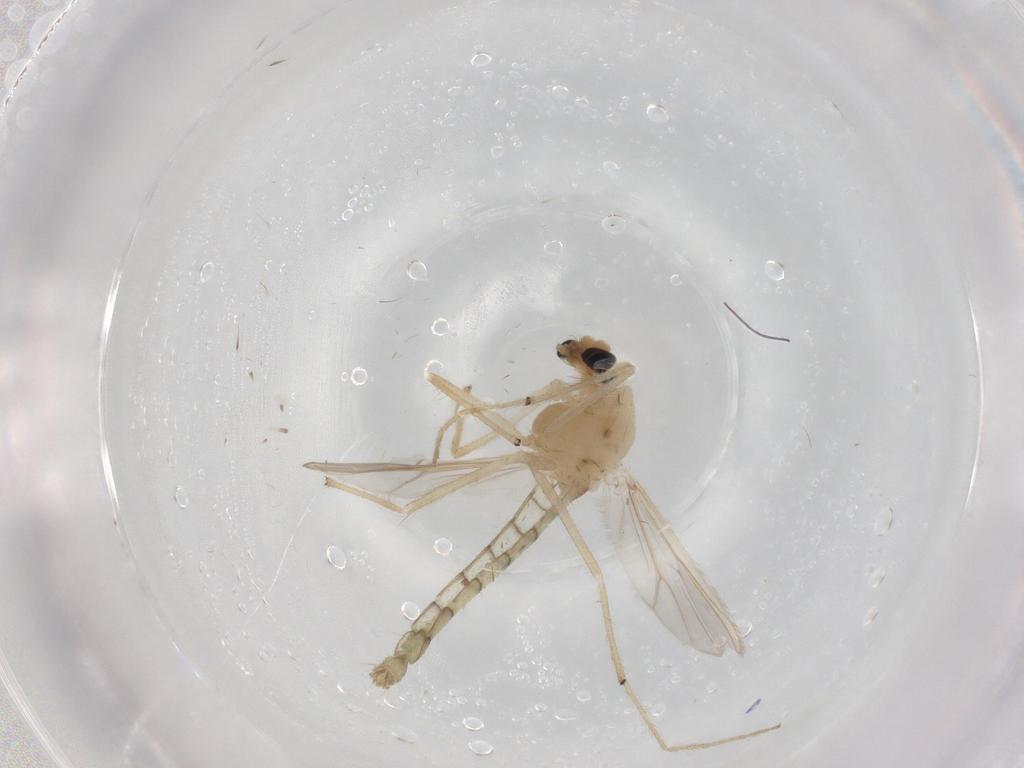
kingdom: Animalia
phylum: Arthropoda
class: Insecta
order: Diptera
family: Chironomidae
